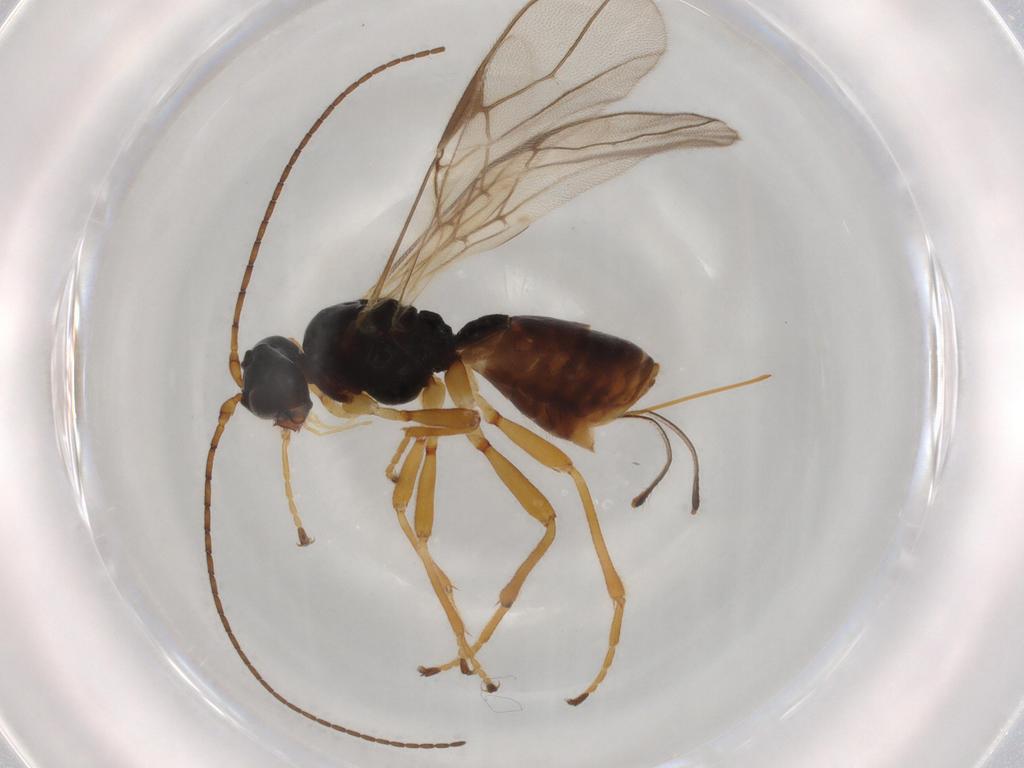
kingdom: Animalia
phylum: Arthropoda
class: Insecta
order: Hymenoptera
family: Braconidae
